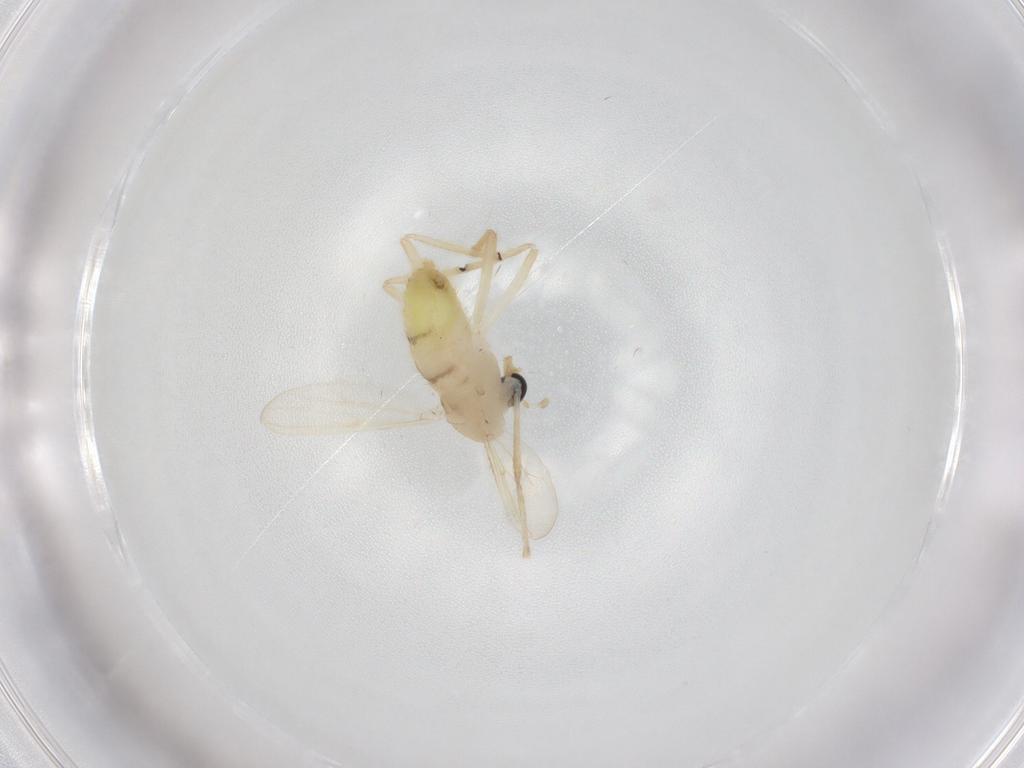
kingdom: Animalia
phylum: Arthropoda
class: Insecta
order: Diptera
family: Chironomidae
